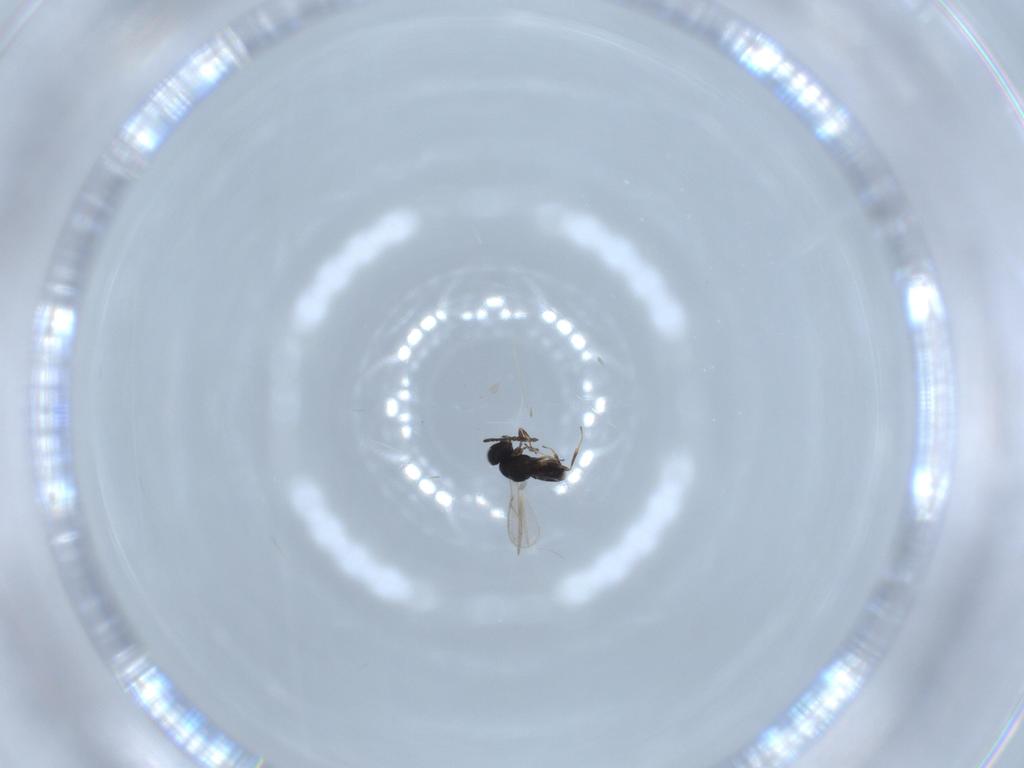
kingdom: Animalia
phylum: Arthropoda
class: Insecta
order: Hymenoptera
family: Scelionidae
